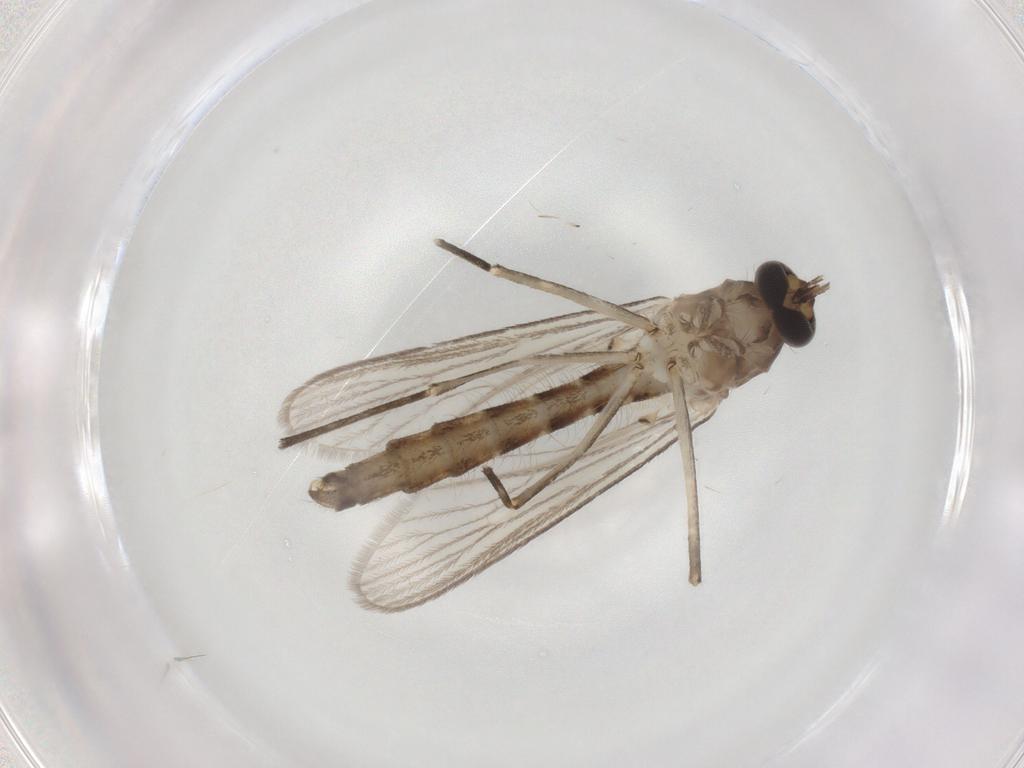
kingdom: Animalia
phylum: Arthropoda
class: Insecta
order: Diptera
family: Culicidae
